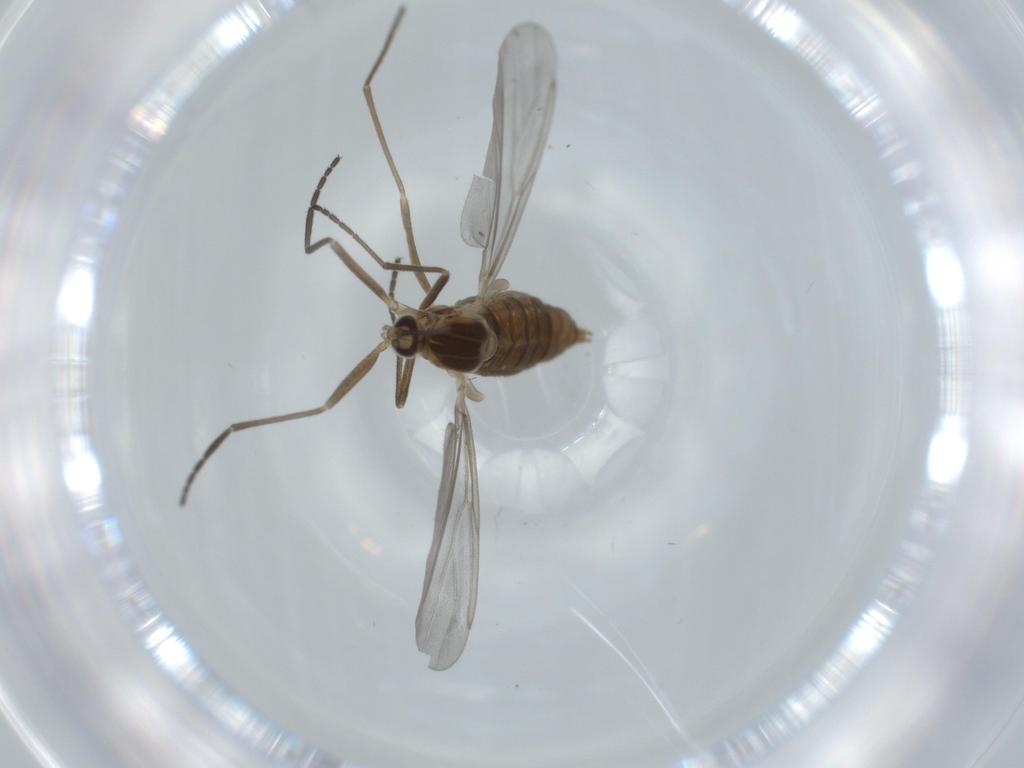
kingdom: Animalia
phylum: Arthropoda
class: Insecta
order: Diptera
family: Cecidomyiidae
